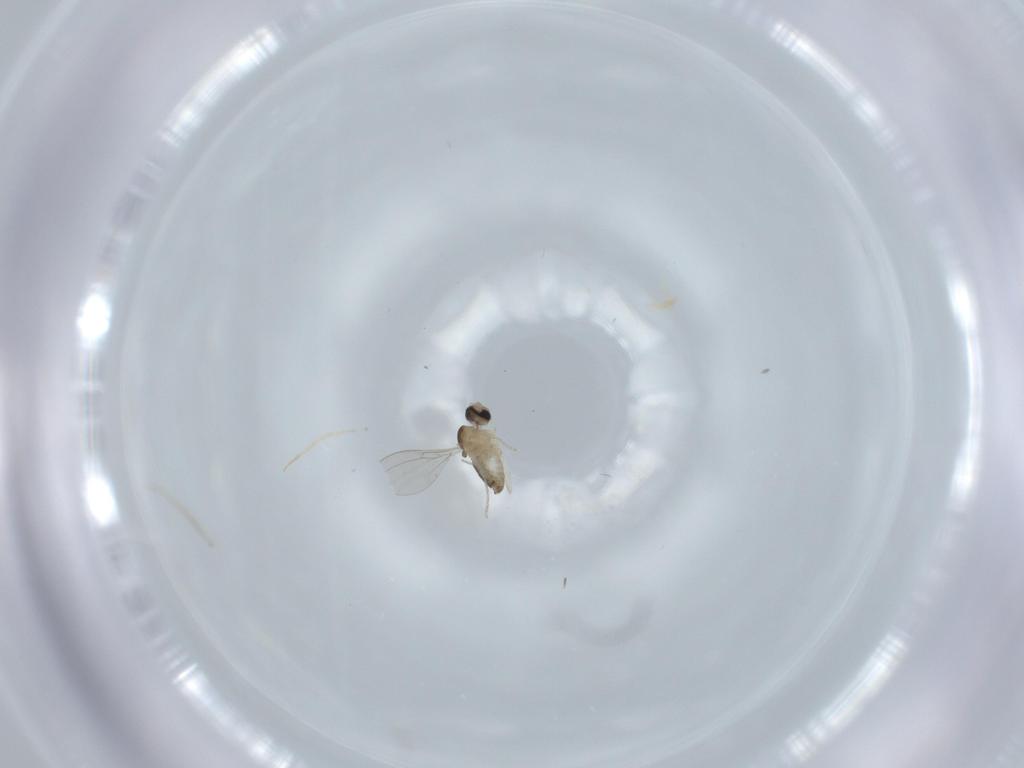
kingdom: Animalia
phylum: Arthropoda
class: Insecta
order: Diptera
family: Cecidomyiidae
